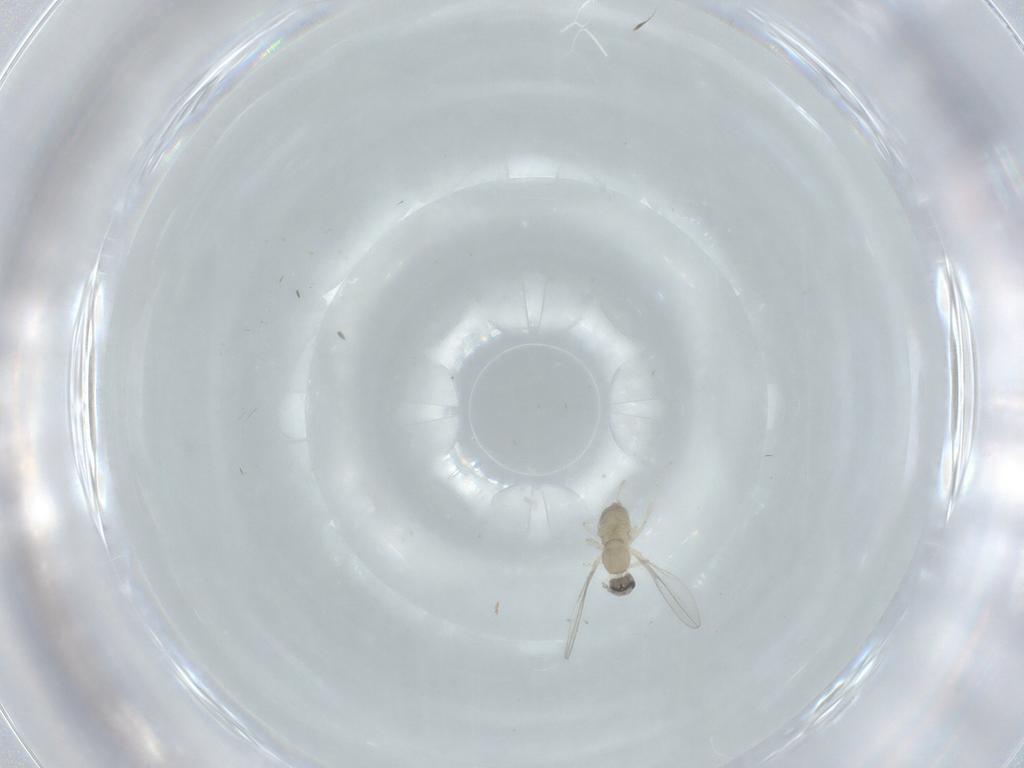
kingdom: Animalia
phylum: Arthropoda
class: Insecta
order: Diptera
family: Cecidomyiidae
